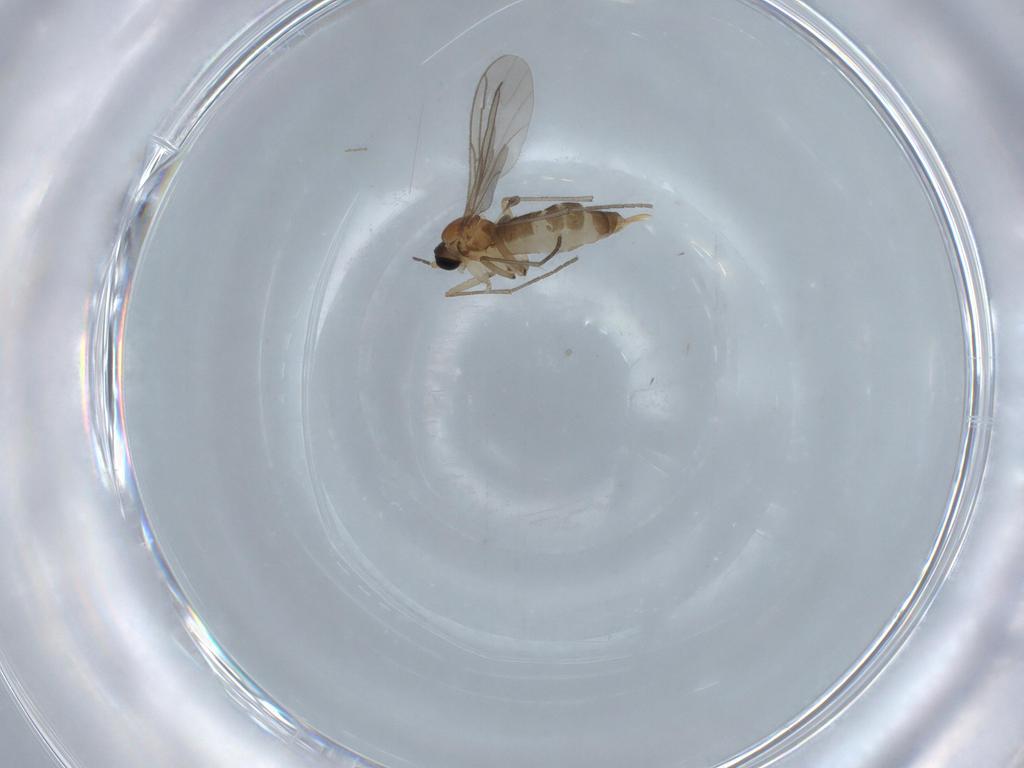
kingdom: Animalia
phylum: Arthropoda
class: Insecta
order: Diptera
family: Sciaridae
